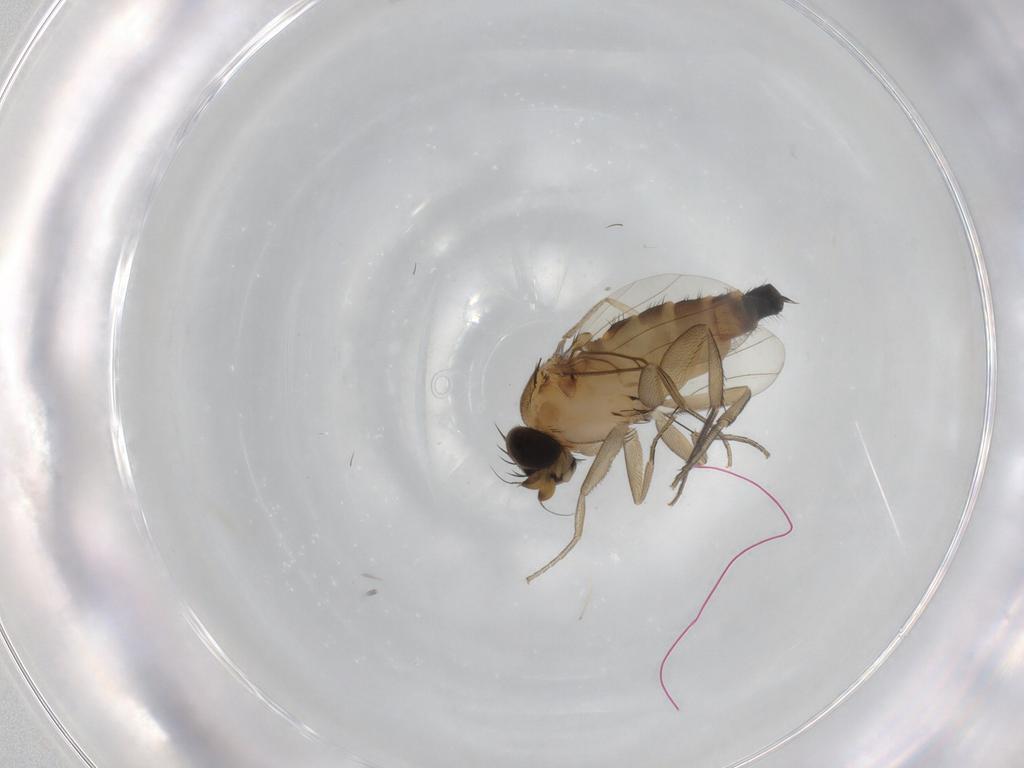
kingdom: Animalia
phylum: Arthropoda
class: Insecta
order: Diptera
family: Phoridae
